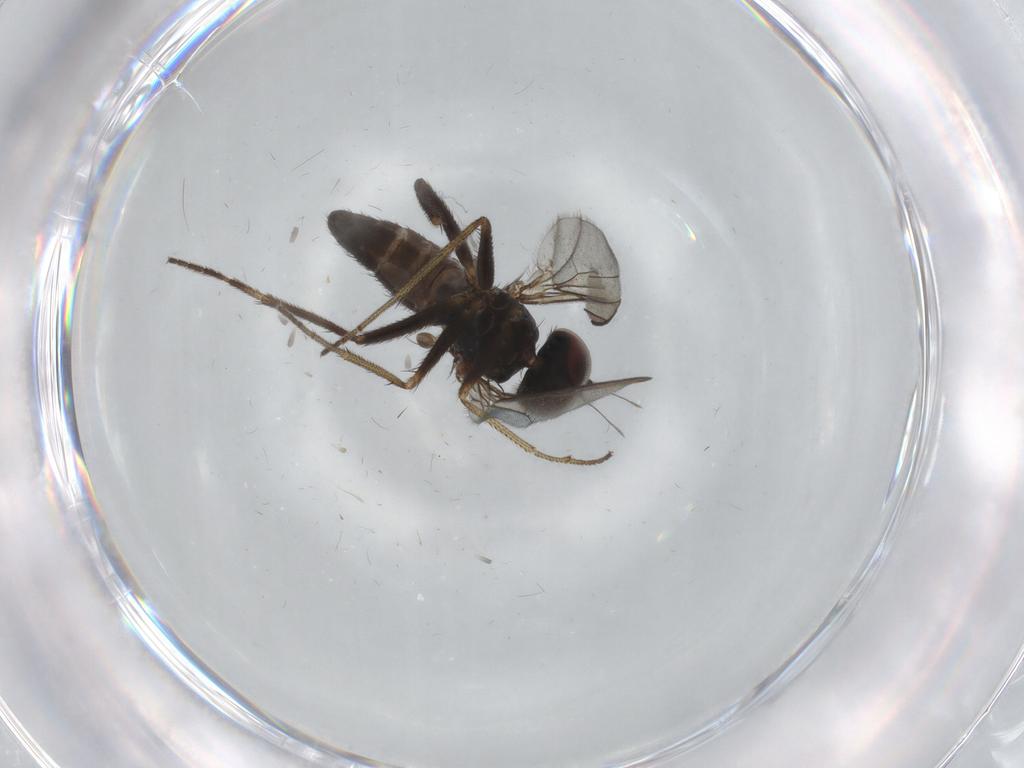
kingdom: Animalia
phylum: Arthropoda
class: Insecta
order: Diptera
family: Dolichopodidae
